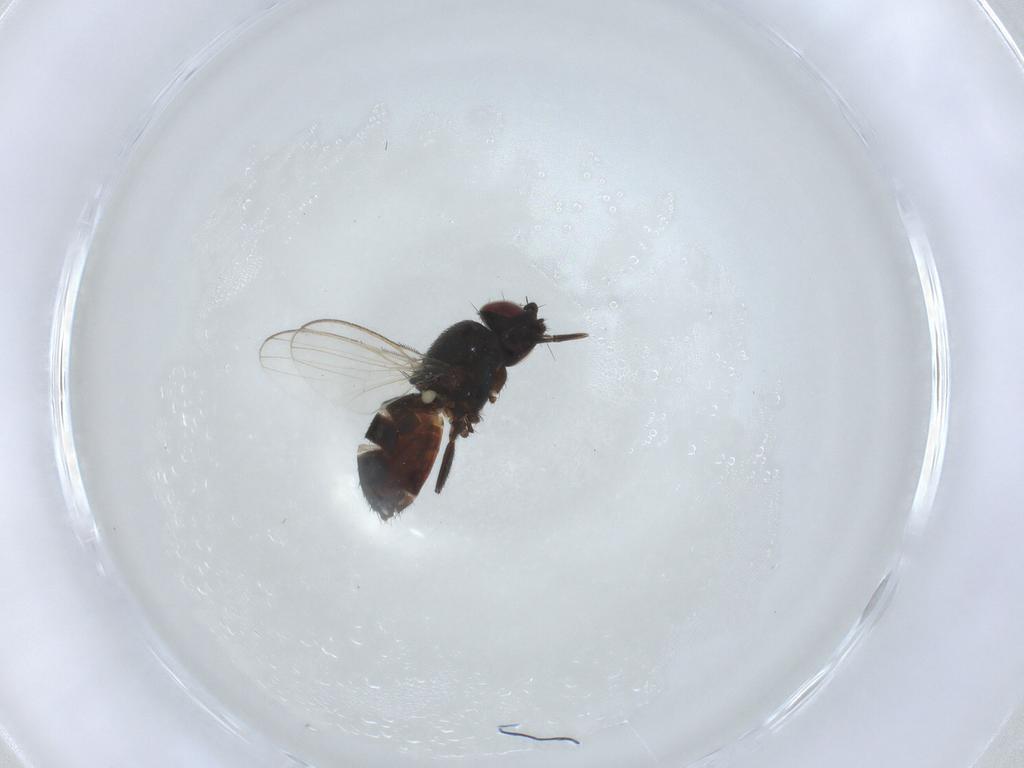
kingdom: Animalia
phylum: Arthropoda
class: Insecta
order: Diptera
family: Milichiidae
